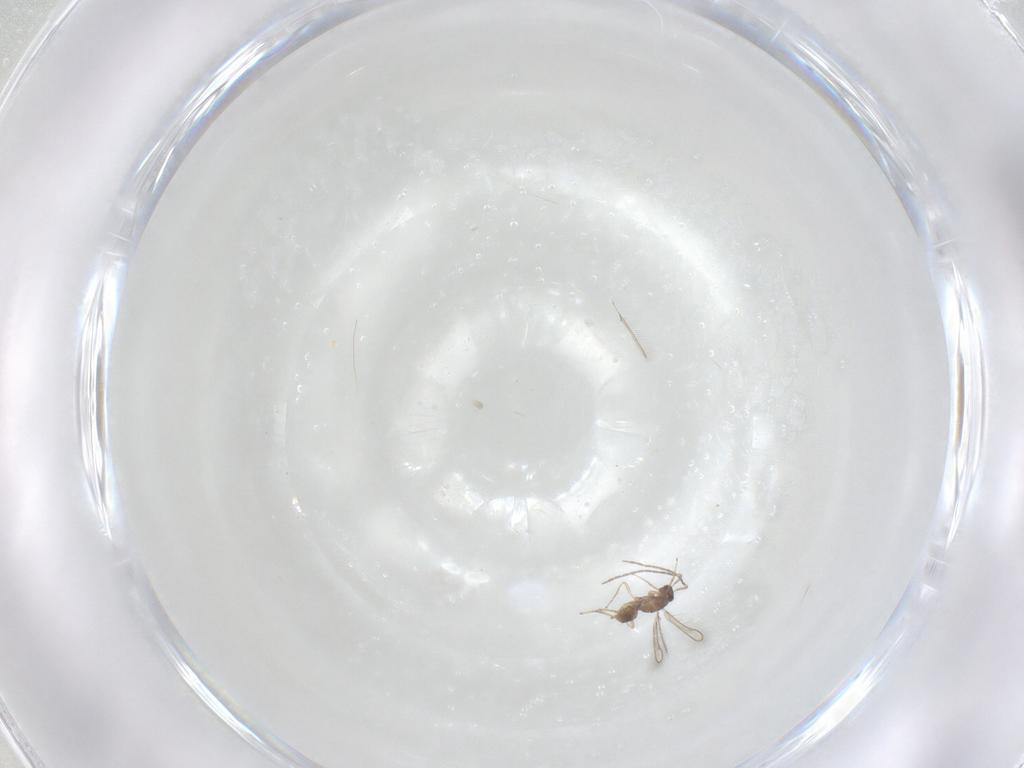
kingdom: Animalia
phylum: Arthropoda
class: Insecta
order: Hymenoptera
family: Mymaridae
